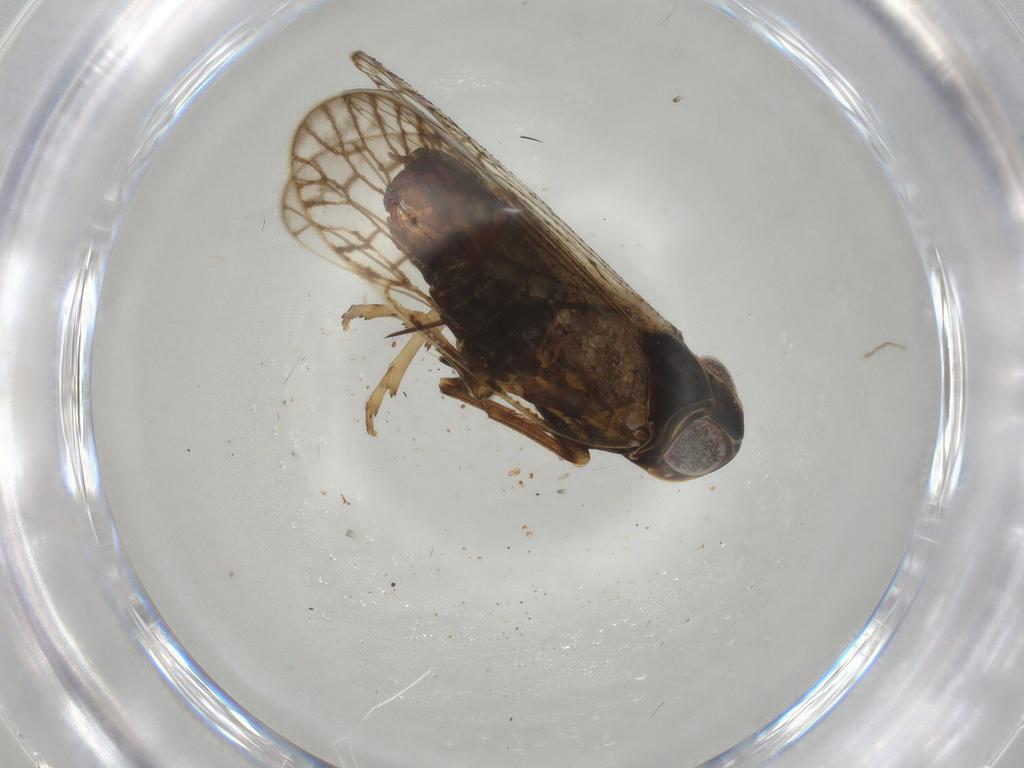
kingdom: Animalia
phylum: Arthropoda
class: Insecta
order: Hemiptera
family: Cixiidae
